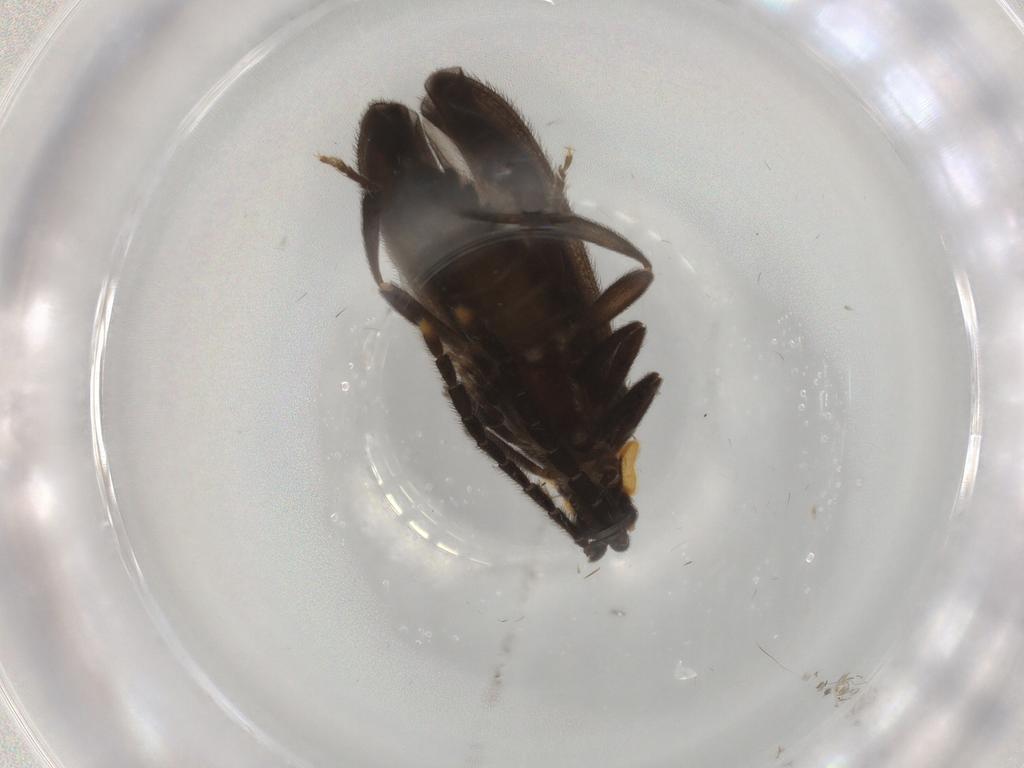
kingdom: Animalia
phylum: Arthropoda
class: Insecta
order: Coleoptera
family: Lycidae
